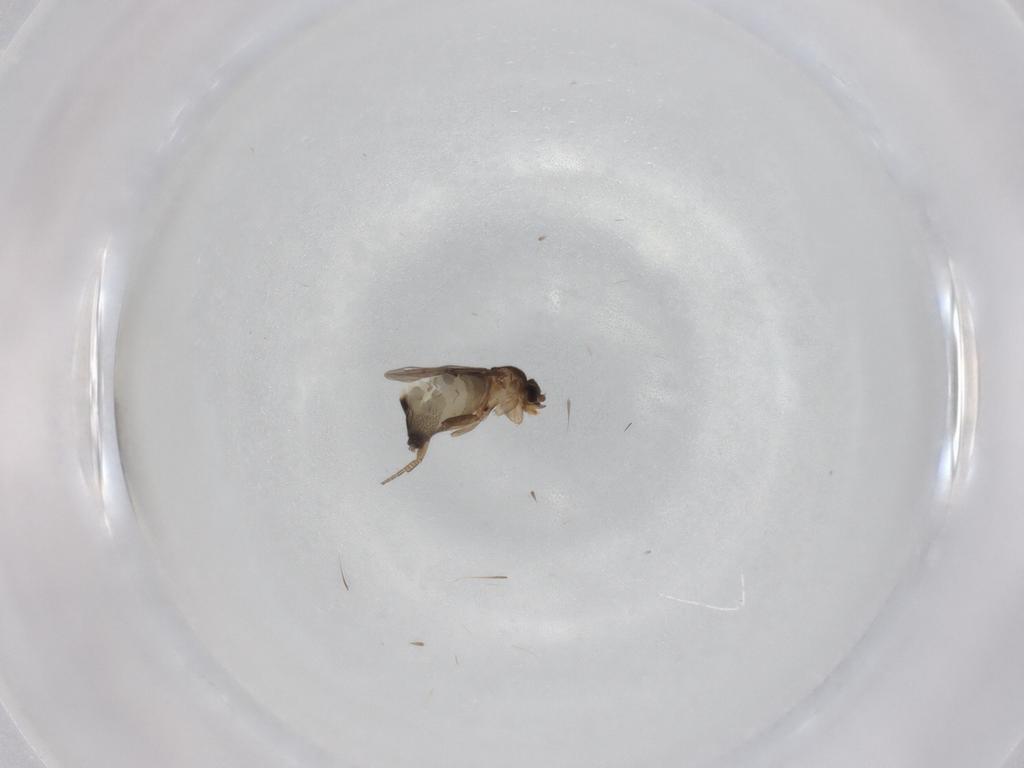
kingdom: Animalia
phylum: Arthropoda
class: Insecta
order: Diptera
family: Phoridae
